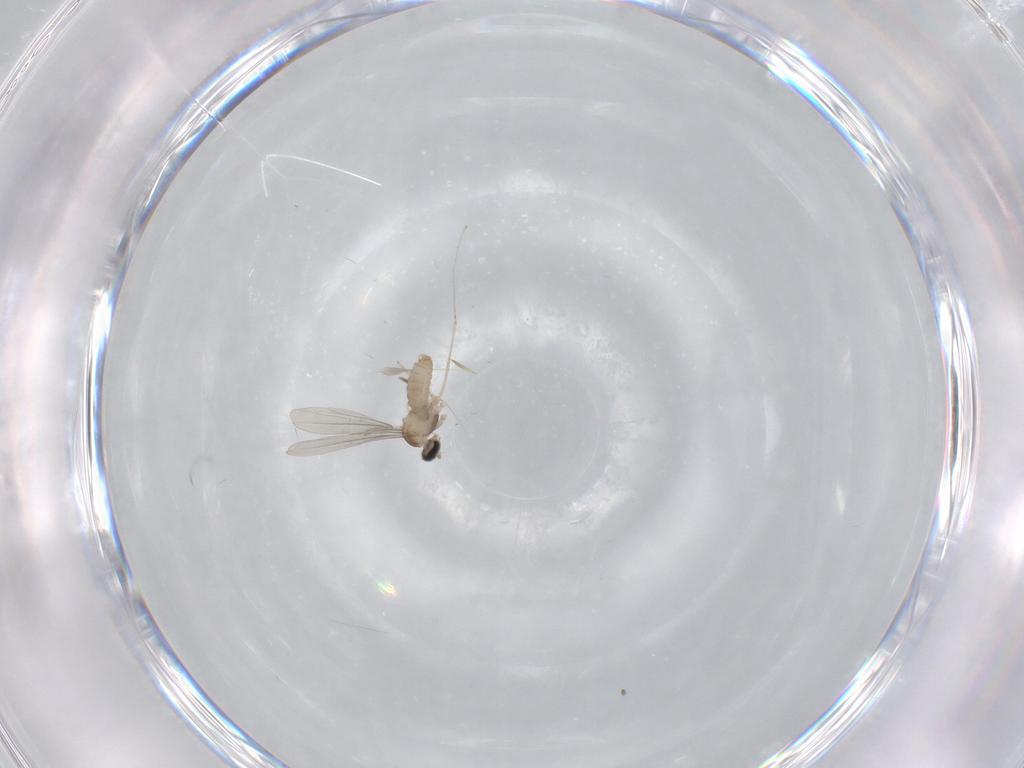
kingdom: Animalia
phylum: Arthropoda
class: Insecta
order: Diptera
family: Cecidomyiidae
